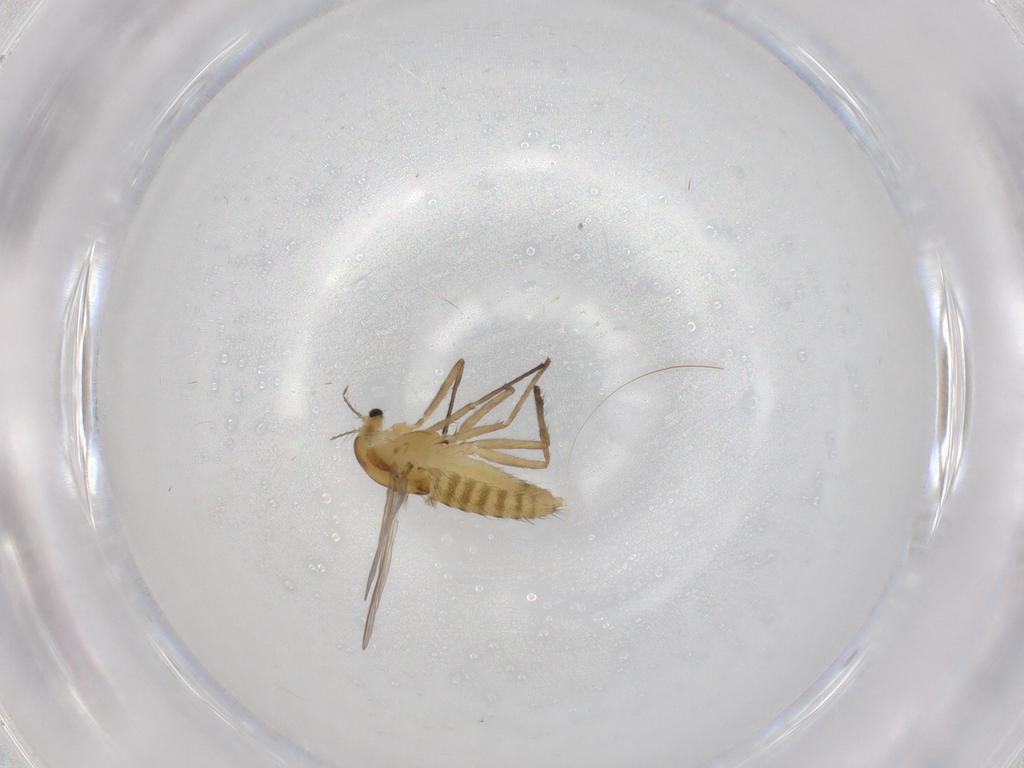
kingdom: Animalia
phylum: Arthropoda
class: Insecta
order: Diptera
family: Chironomidae
